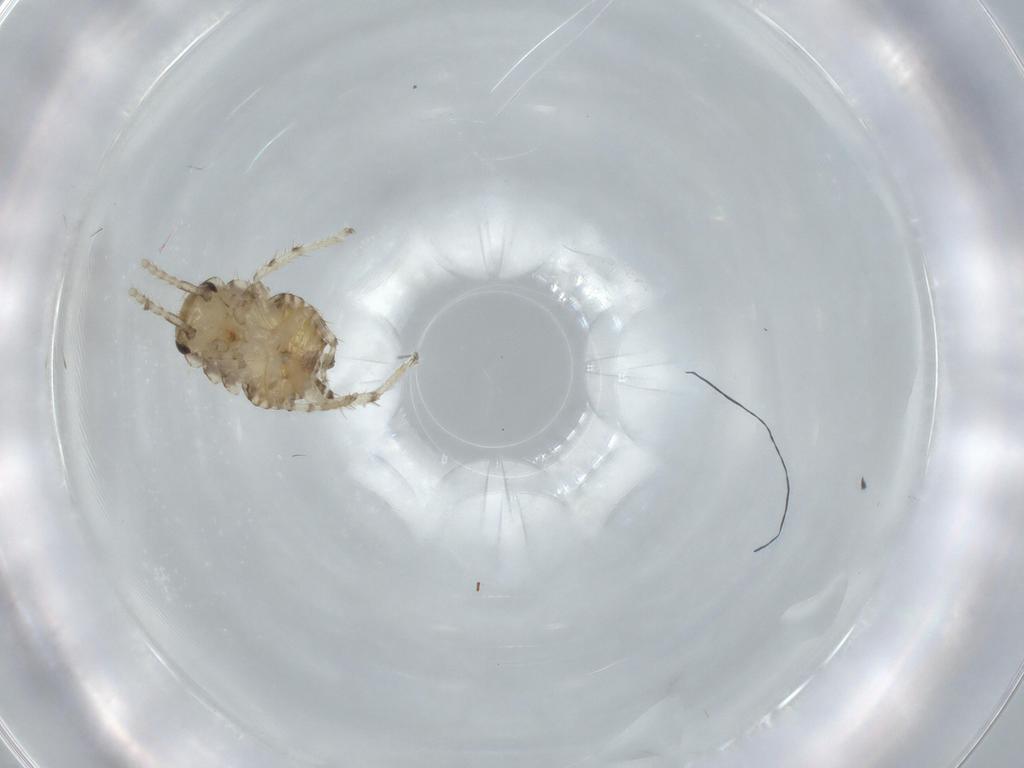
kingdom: Animalia
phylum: Arthropoda
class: Insecta
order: Blattodea
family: Ectobiidae
